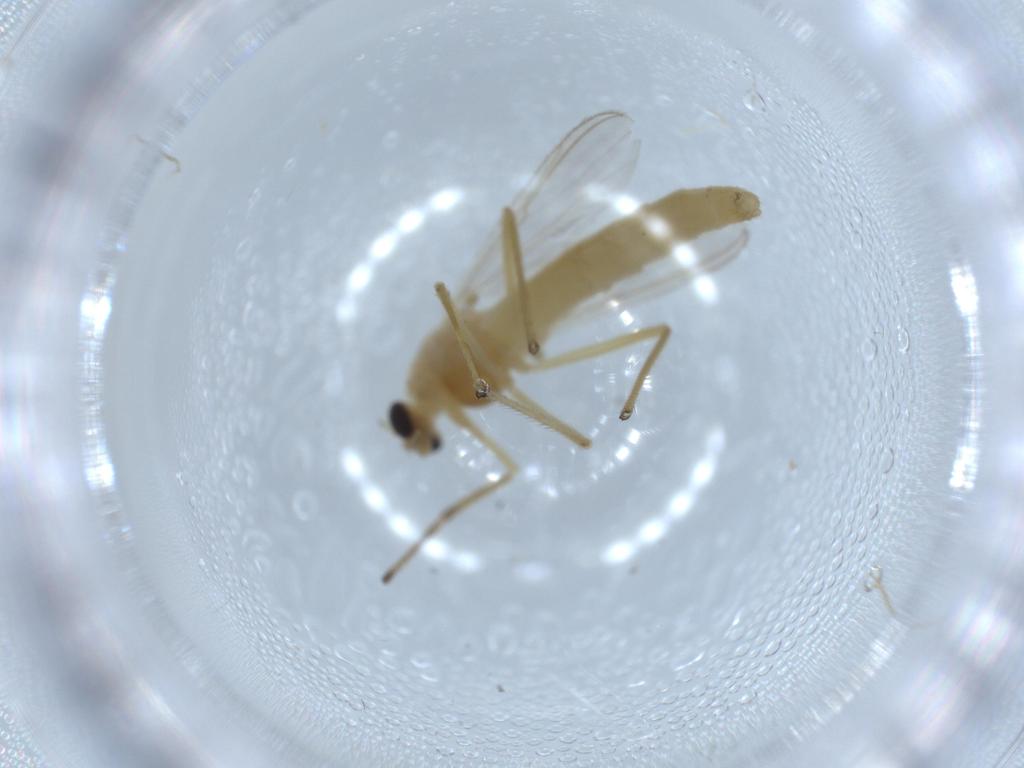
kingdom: Animalia
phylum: Arthropoda
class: Insecta
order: Diptera
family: Chironomidae
